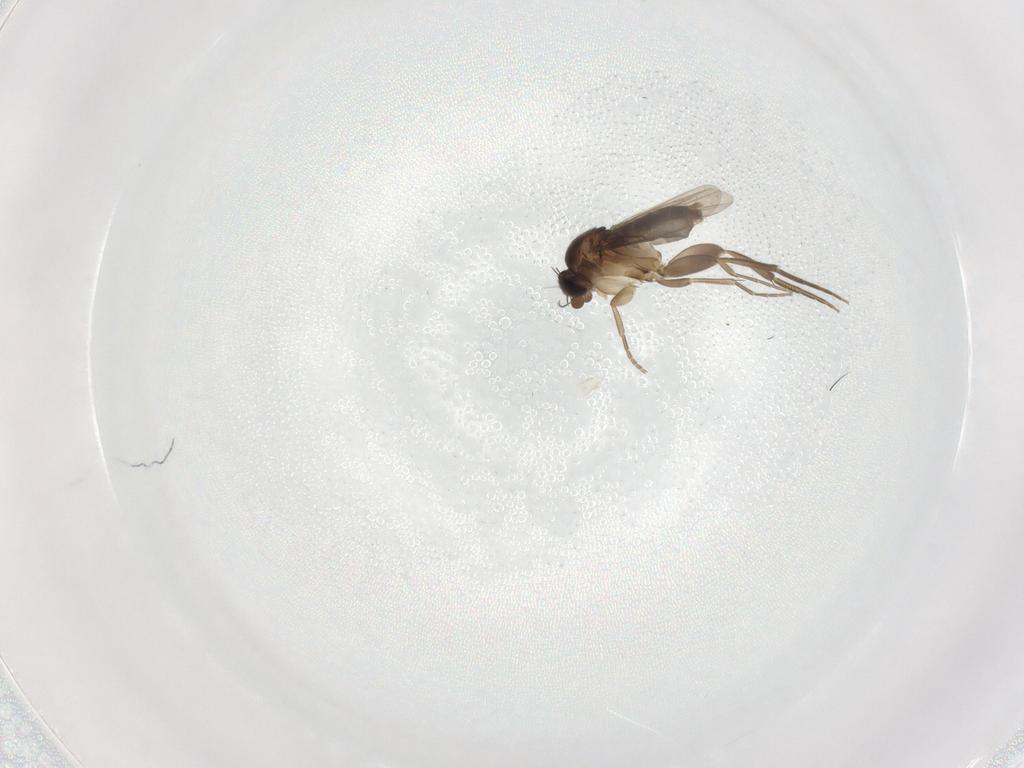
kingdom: Animalia
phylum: Arthropoda
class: Insecta
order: Diptera
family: Phoridae
